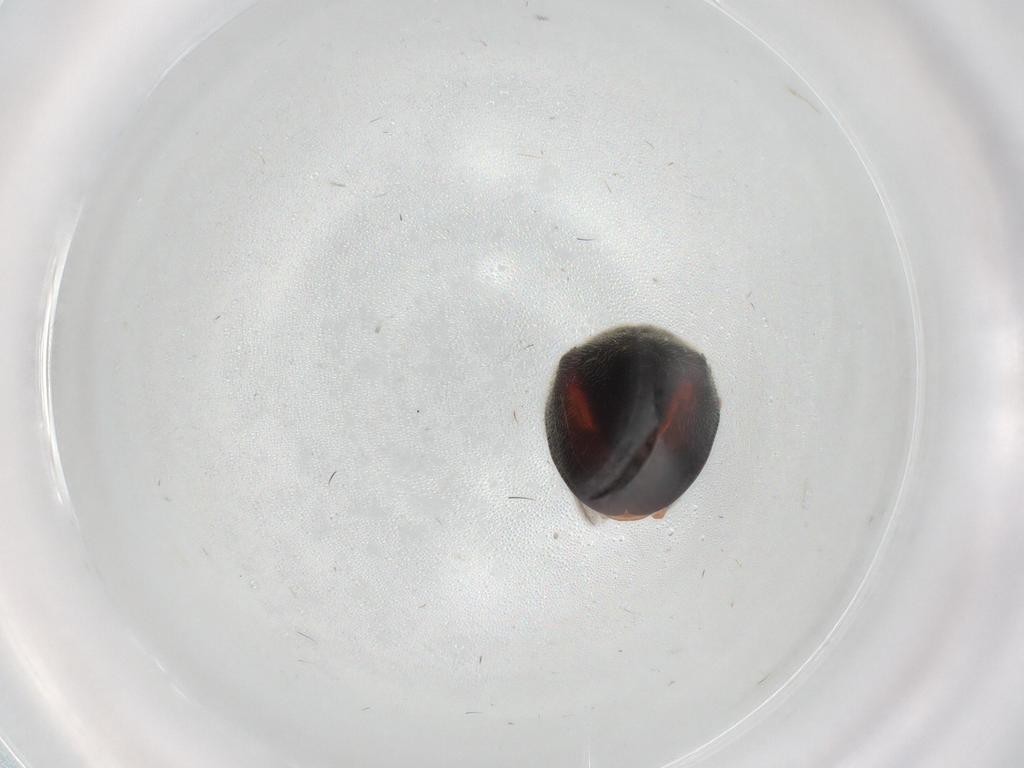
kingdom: Animalia
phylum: Arthropoda
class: Insecta
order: Coleoptera
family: Coccinellidae
